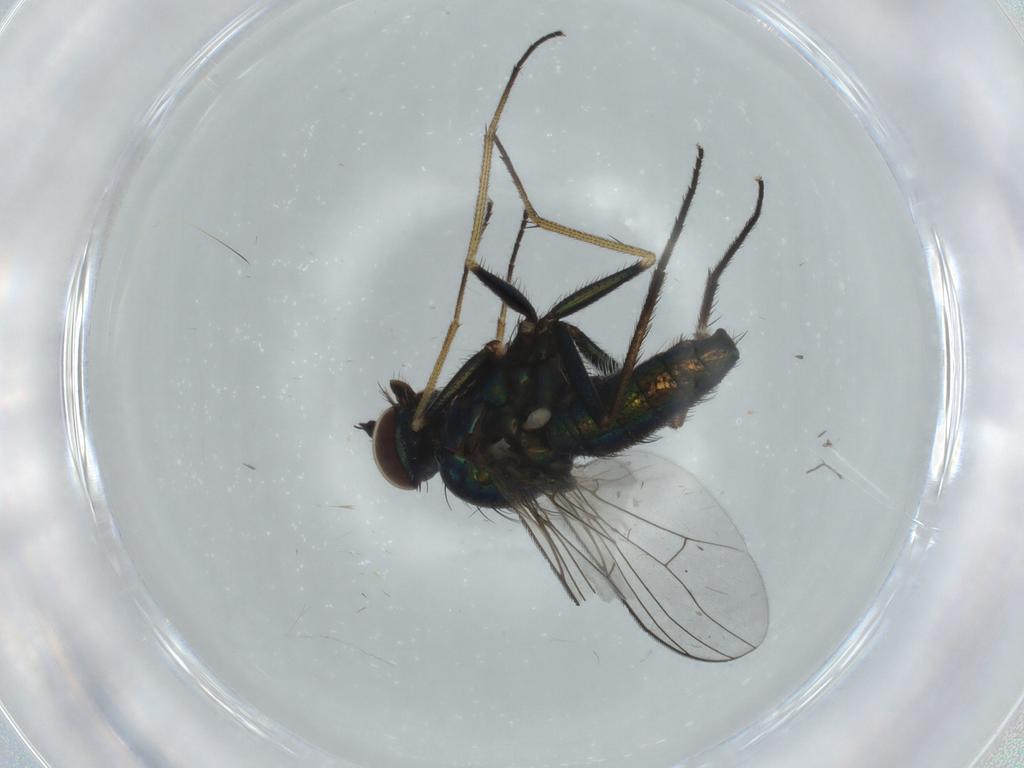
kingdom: Animalia
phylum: Arthropoda
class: Insecta
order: Diptera
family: Dolichopodidae
